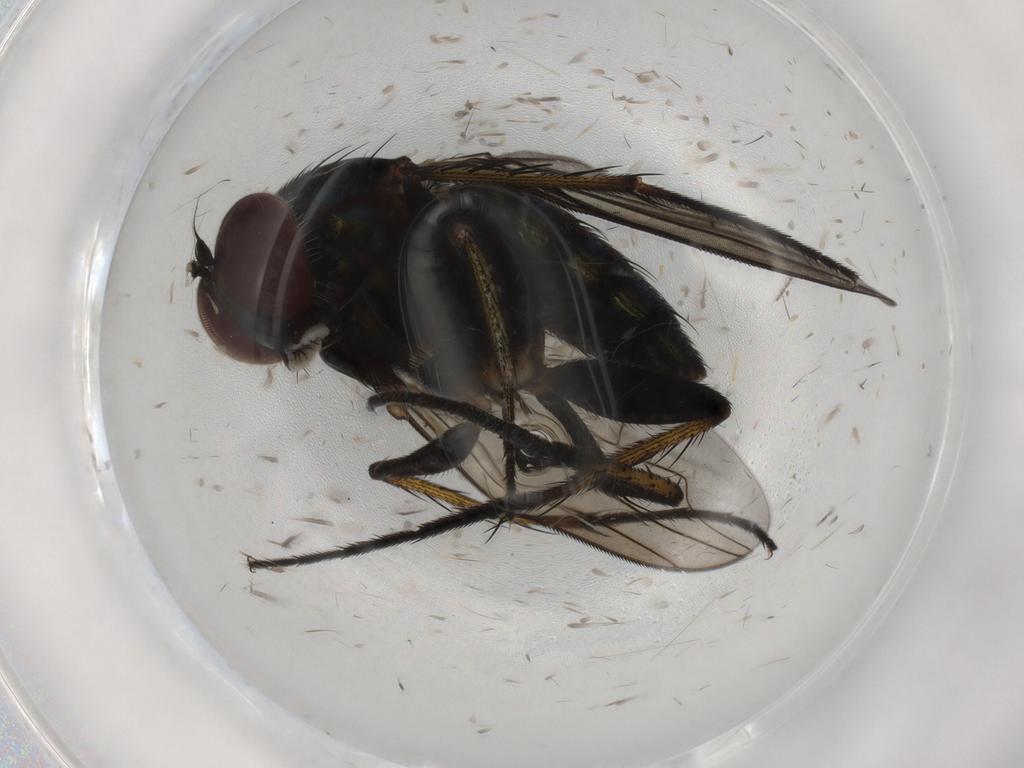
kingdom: Animalia
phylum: Arthropoda
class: Insecta
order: Diptera
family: Dolichopodidae
